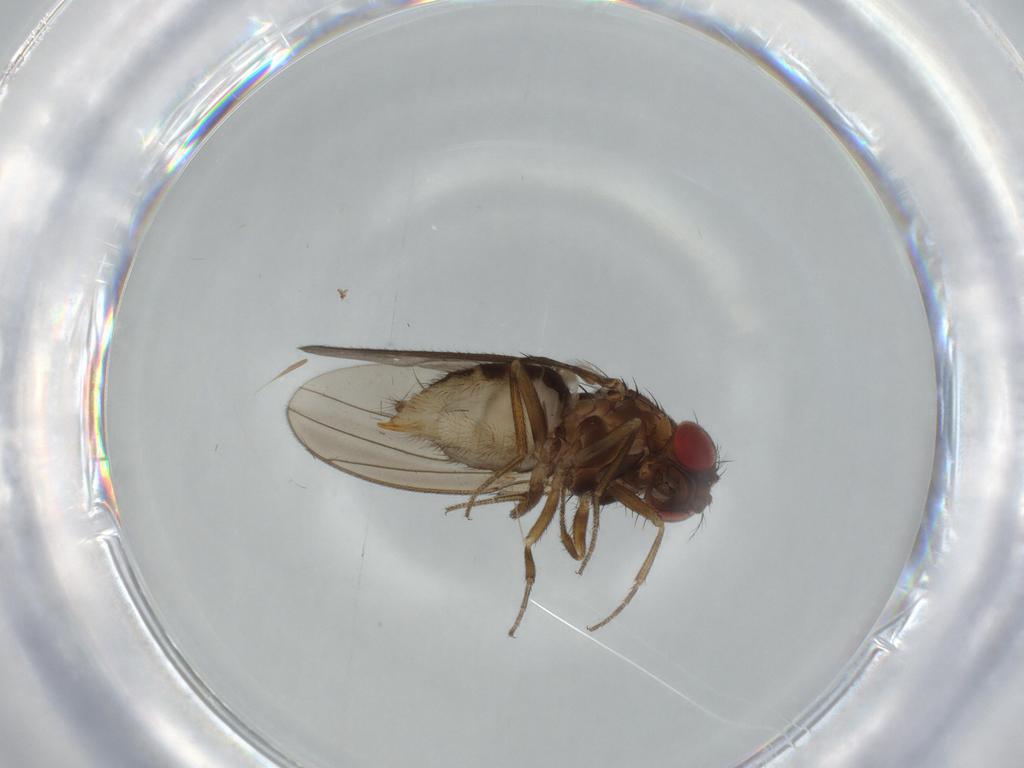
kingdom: Animalia
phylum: Arthropoda
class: Insecta
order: Diptera
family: Drosophilidae
